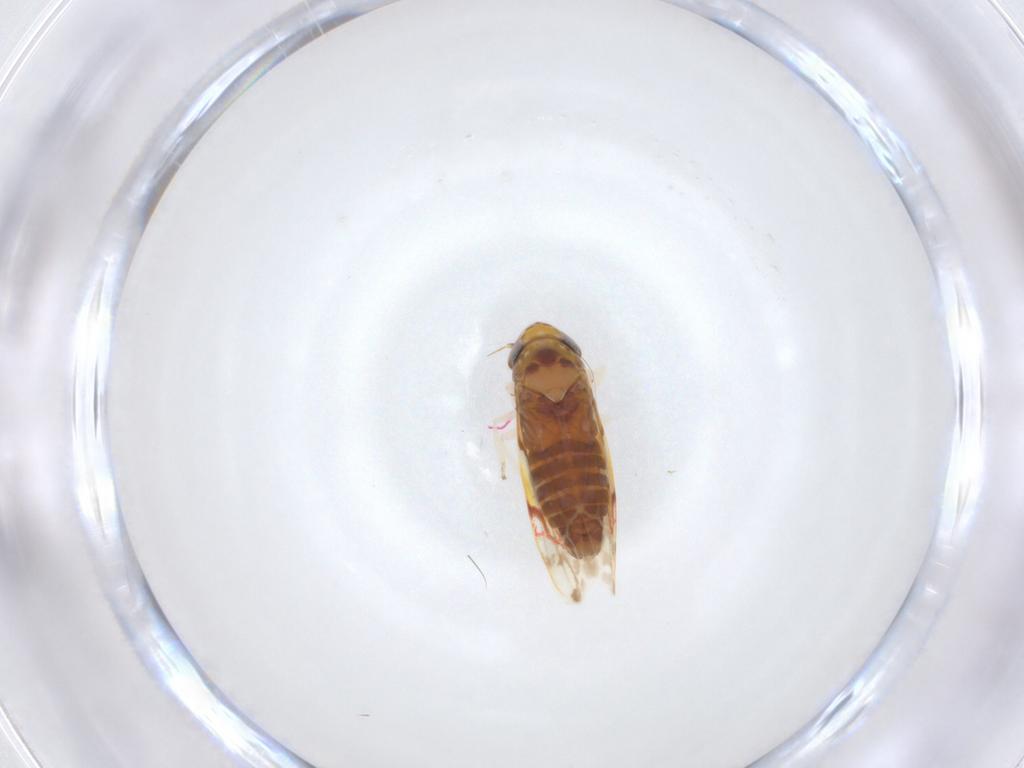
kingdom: Animalia
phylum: Arthropoda
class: Insecta
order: Hemiptera
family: Cicadellidae
